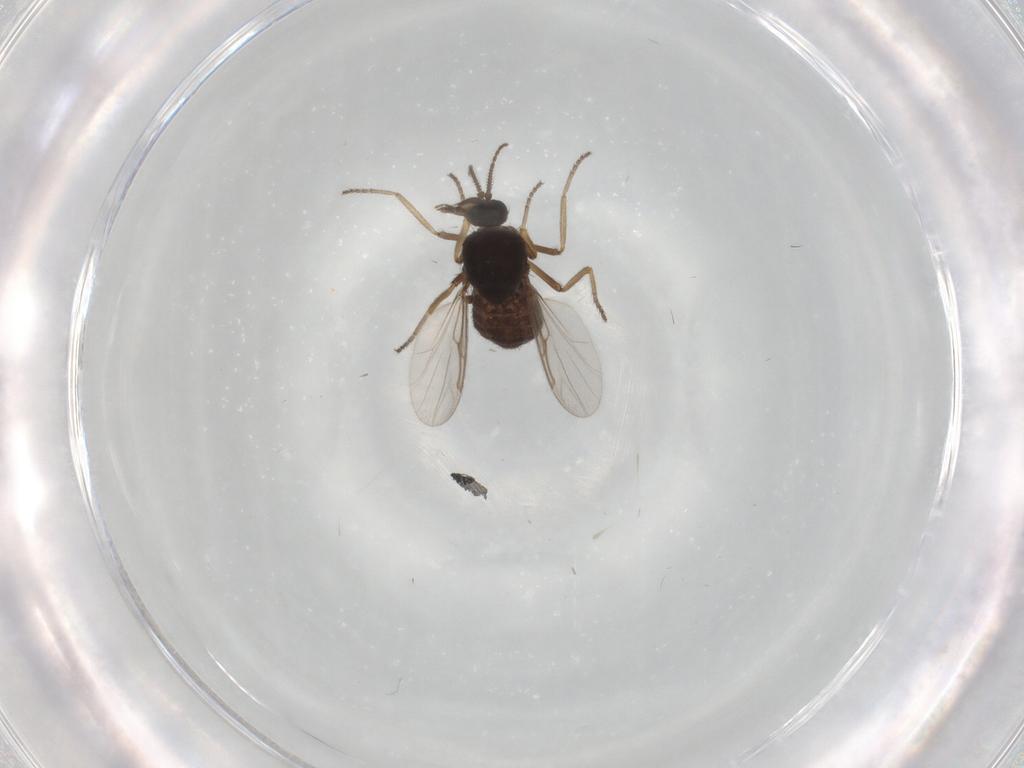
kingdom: Animalia
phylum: Arthropoda
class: Insecta
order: Diptera
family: Ceratopogonidae
